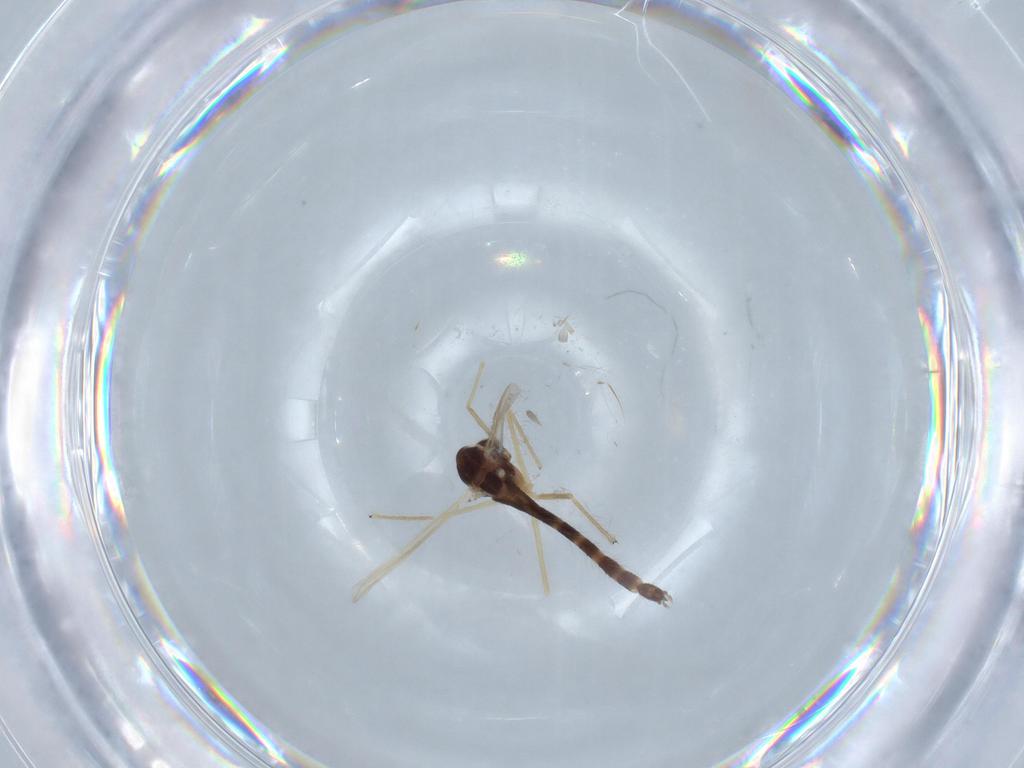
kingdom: Animalia
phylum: Arthropoda
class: Insecta
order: Diptera
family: Chironomidae
